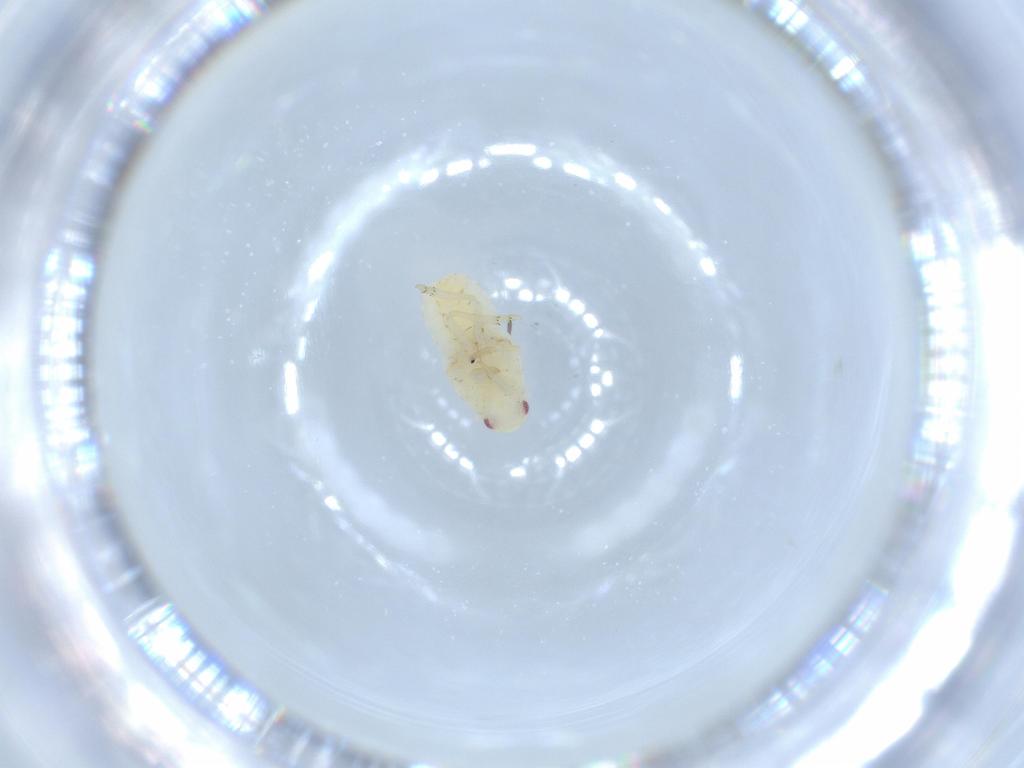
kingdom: Animalia
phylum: Arthropoda
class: Insecta
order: Hemiptera
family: Flatidae
